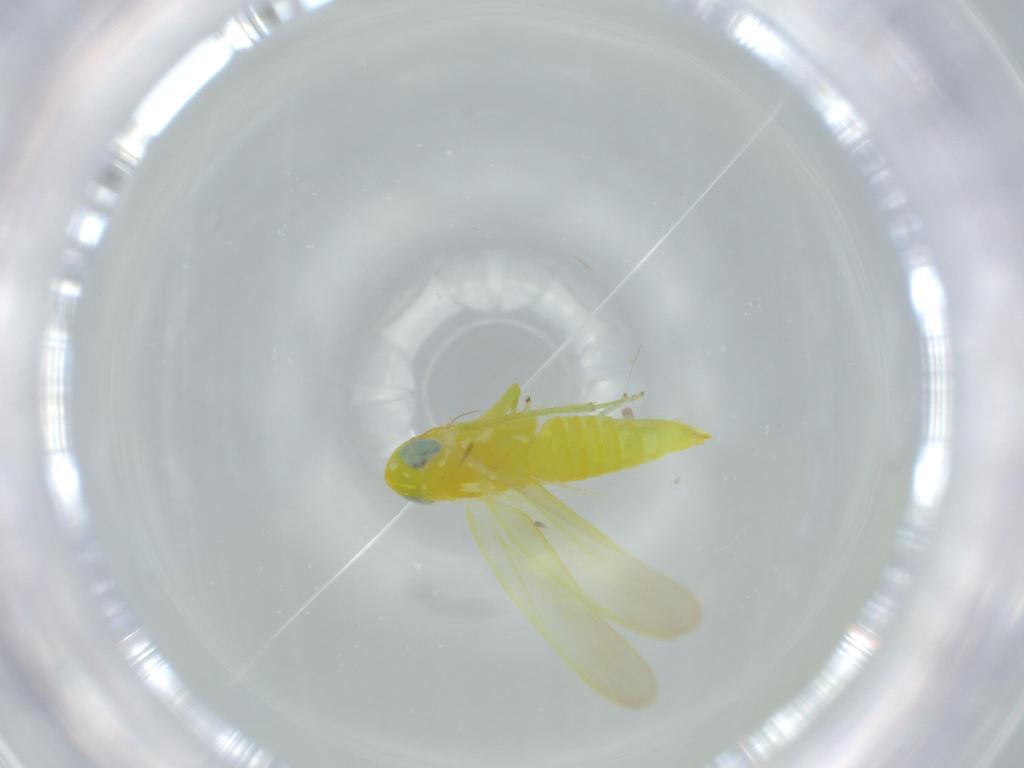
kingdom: Animalia
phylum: Arthropoda
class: Insecta
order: Hemiptera
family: Cicadellidae
